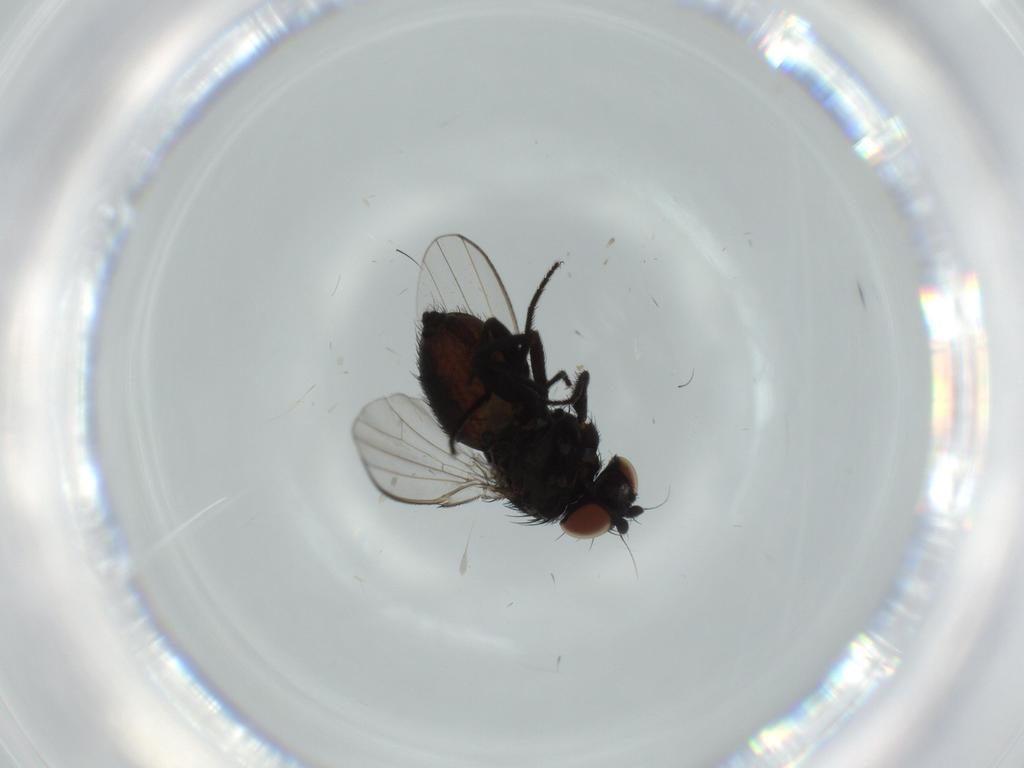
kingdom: Animalia
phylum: Arthropoda
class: Insecta
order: Diptera
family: Milichiidae
